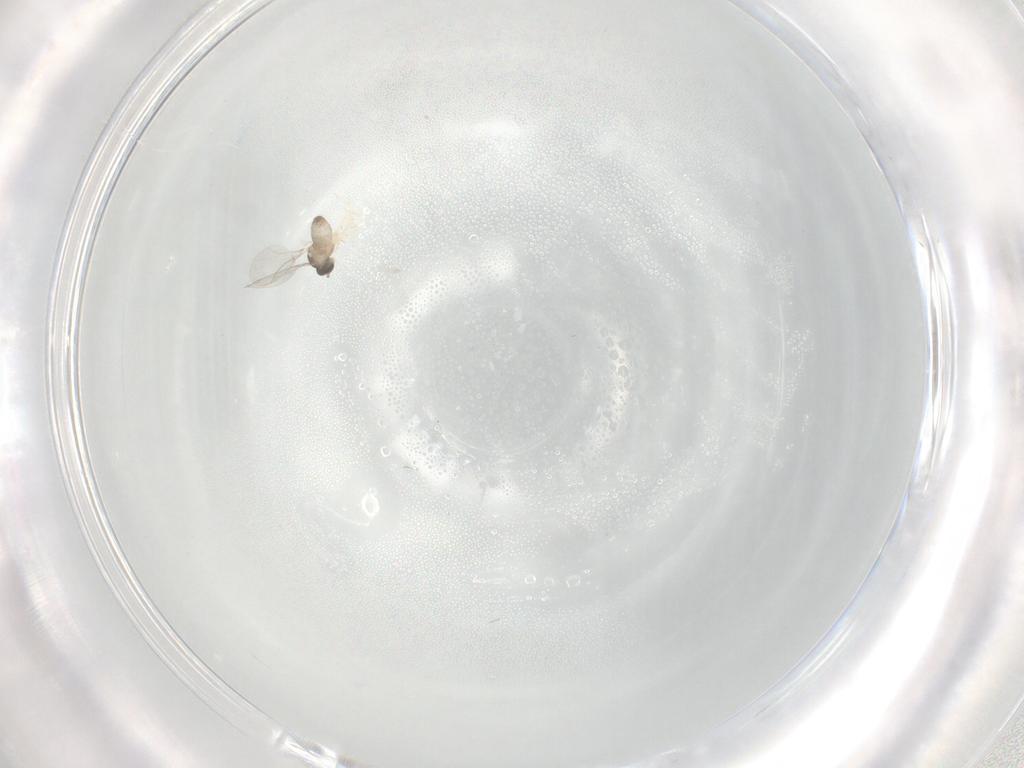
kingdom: Animalia
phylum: Arthropoda
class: Insecta
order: Diptera
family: Cecidomyiidae
